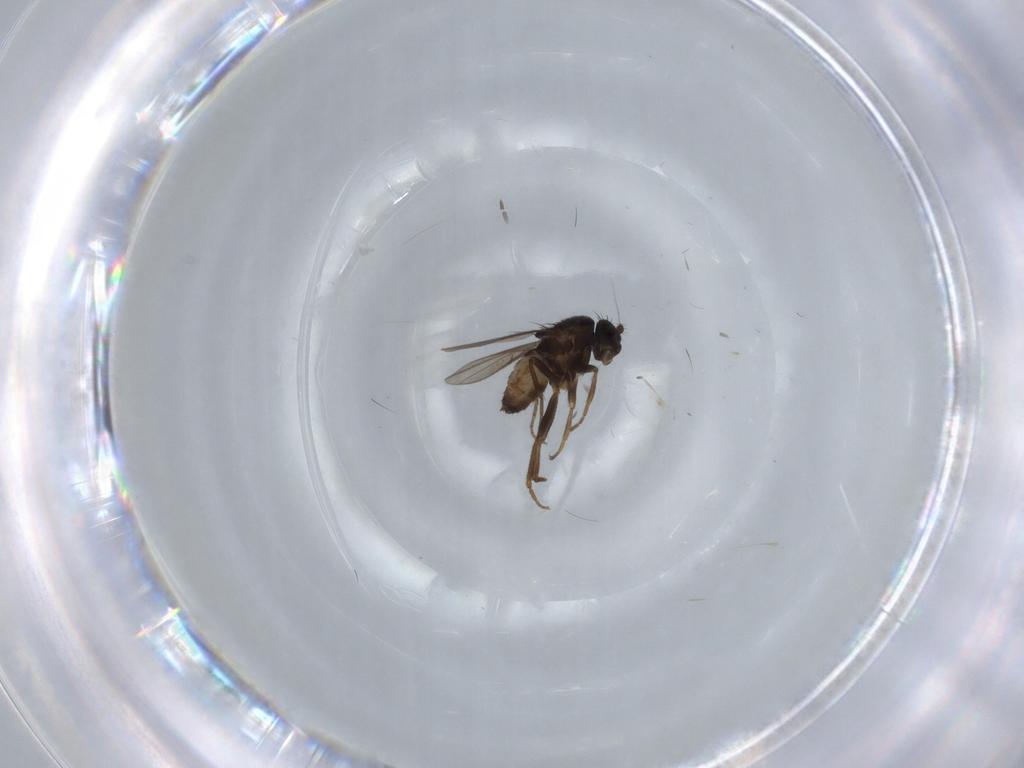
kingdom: Animalia
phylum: Arthropoda
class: Insecta
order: Diptera
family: Sphaeroceridae
